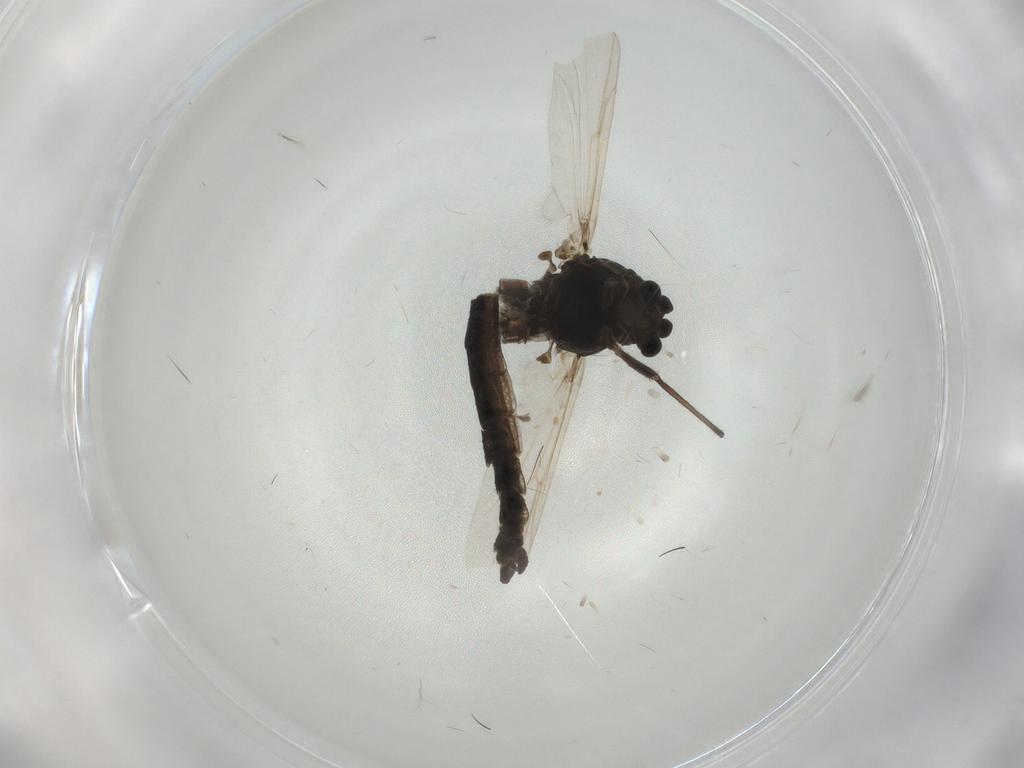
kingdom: Animalia
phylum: Arthropoda
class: Insecta
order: Diptera
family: Chironomidae
